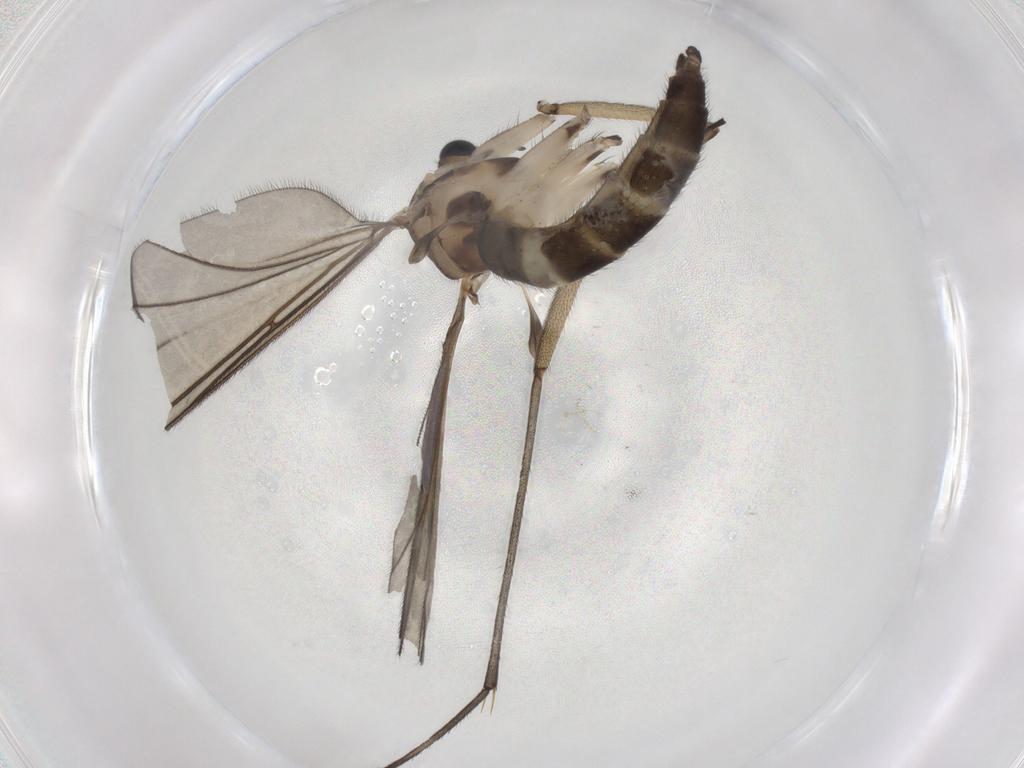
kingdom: Animalia
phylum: Arthropoda
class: Insecta
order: Diptera
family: Sciaridae
